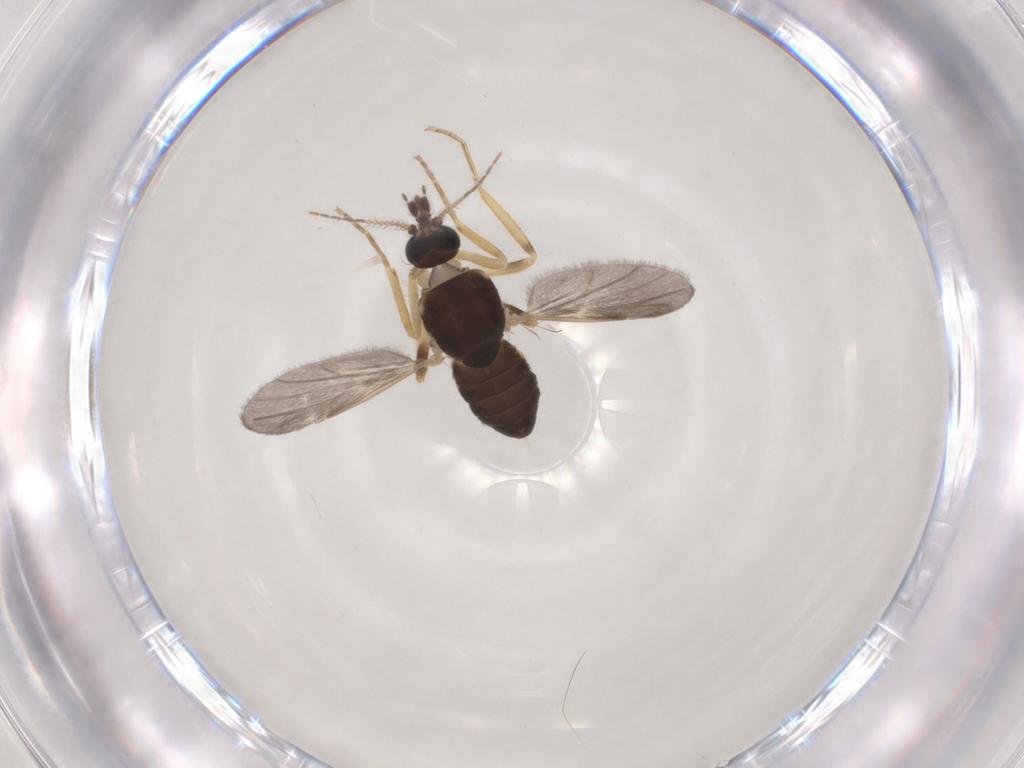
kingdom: Animalia
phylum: Arthropoda
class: Insecta
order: Diptera
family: Ceratopogonidae
